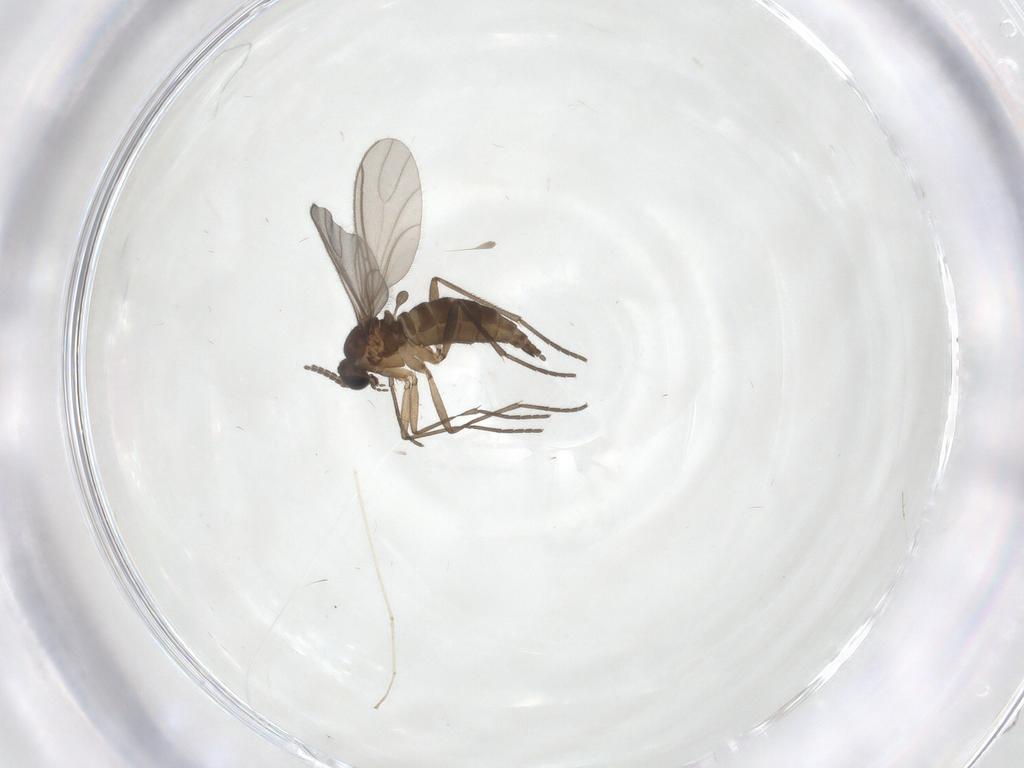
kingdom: Animalia
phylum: Arthropoda
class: Insecta
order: Diptera
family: Sciaridae
